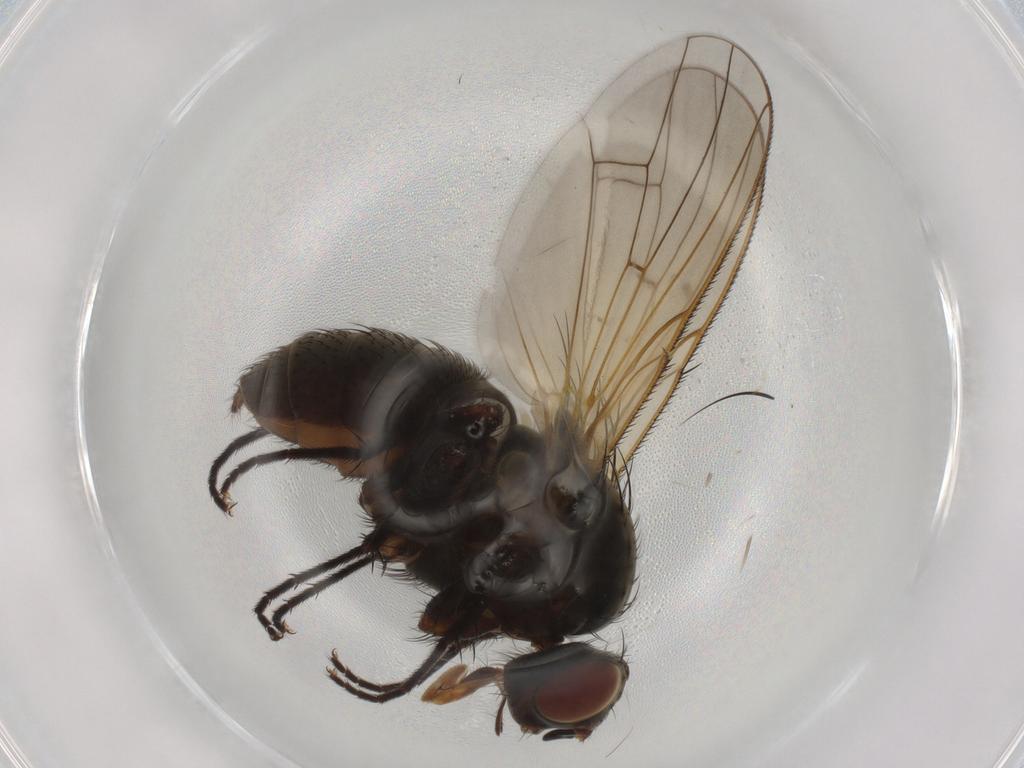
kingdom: Animalia
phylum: Arthropoda
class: Insecta
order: Diptera
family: Anthomyiidae
